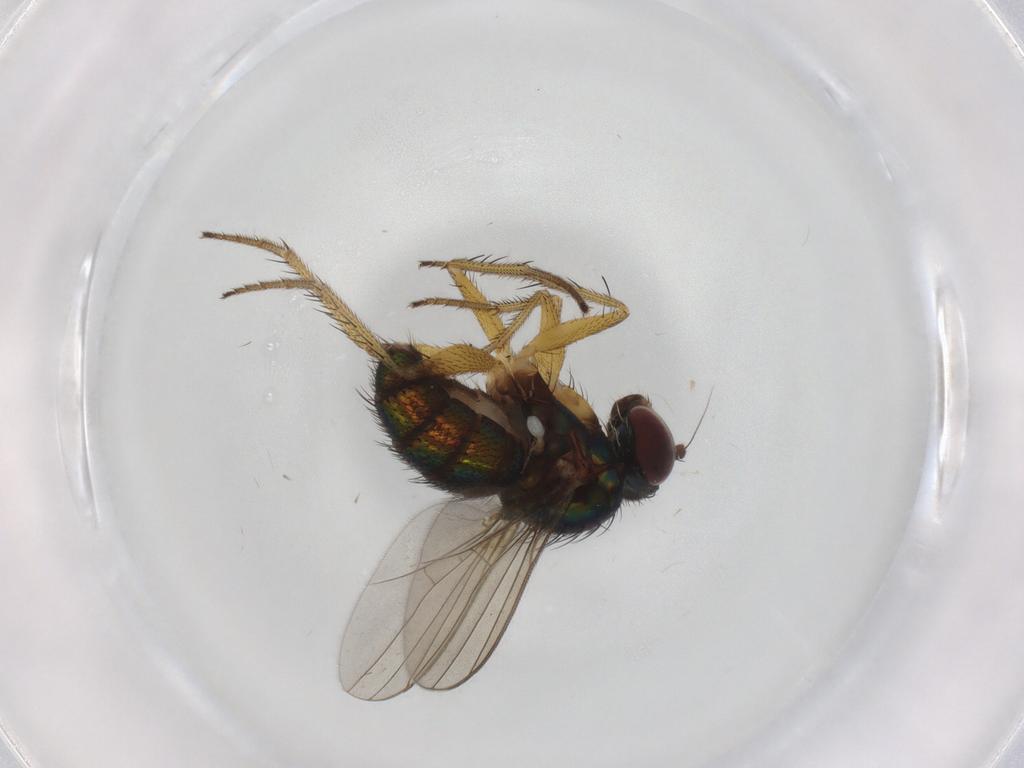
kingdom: Animalia
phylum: Arthropoda
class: Insecta
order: Diptera
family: Dolichopodidae
